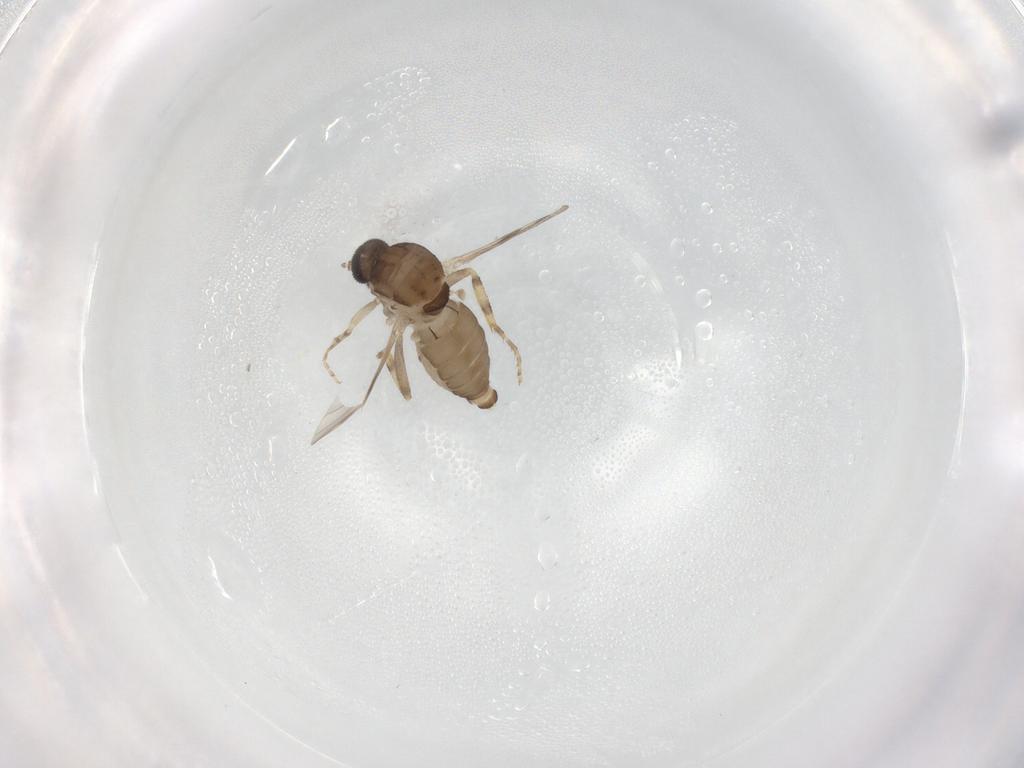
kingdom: Animalia
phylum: Arthropoda
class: Insecta
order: Diptera
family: Ceratopogonidae
